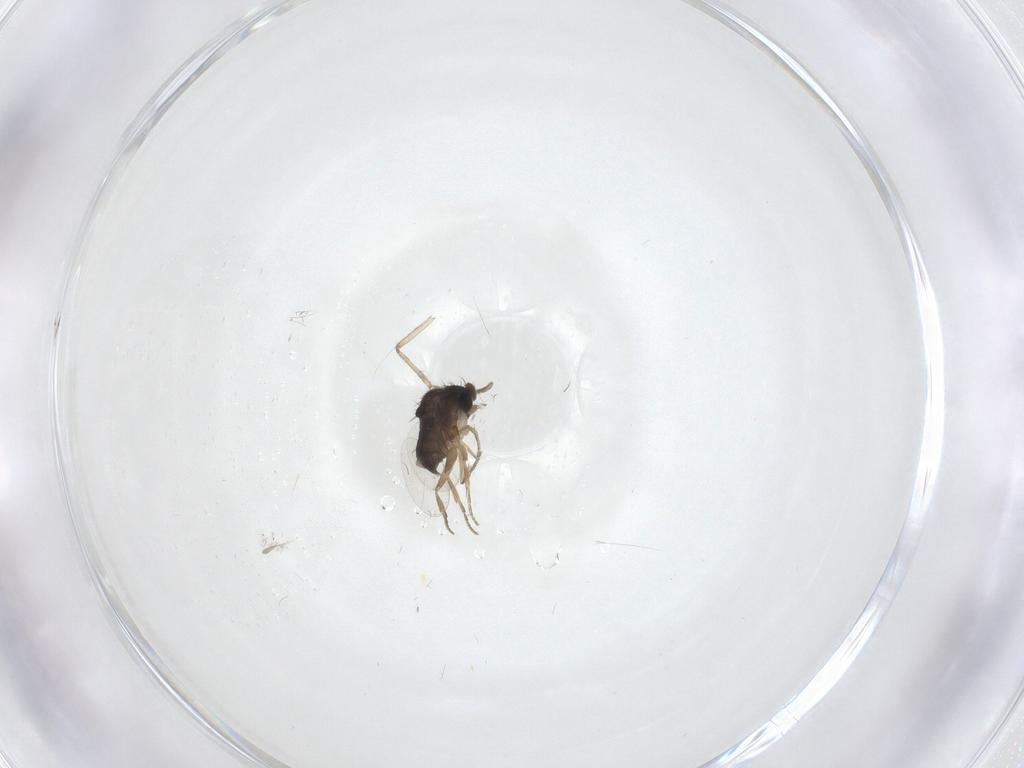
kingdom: Animalia
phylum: Arthropoda
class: Insecta
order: Diptera
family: Phoridae
